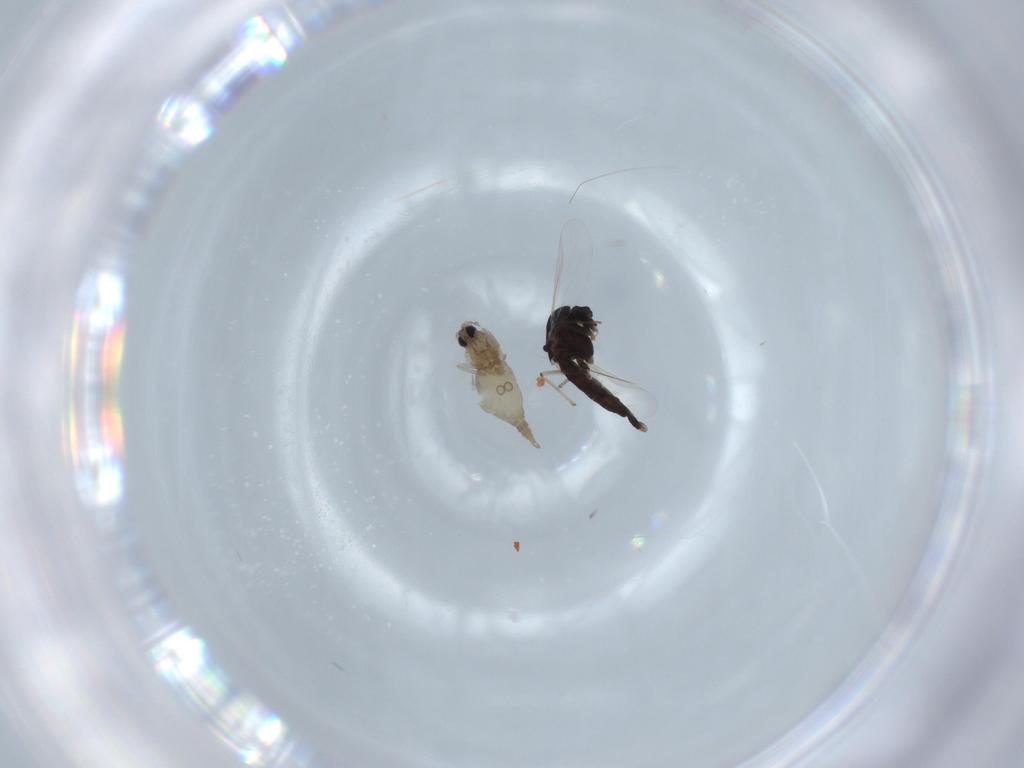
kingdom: Animalia
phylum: Arthropoda
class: Insecta
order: Diptera
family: Chironomidae
